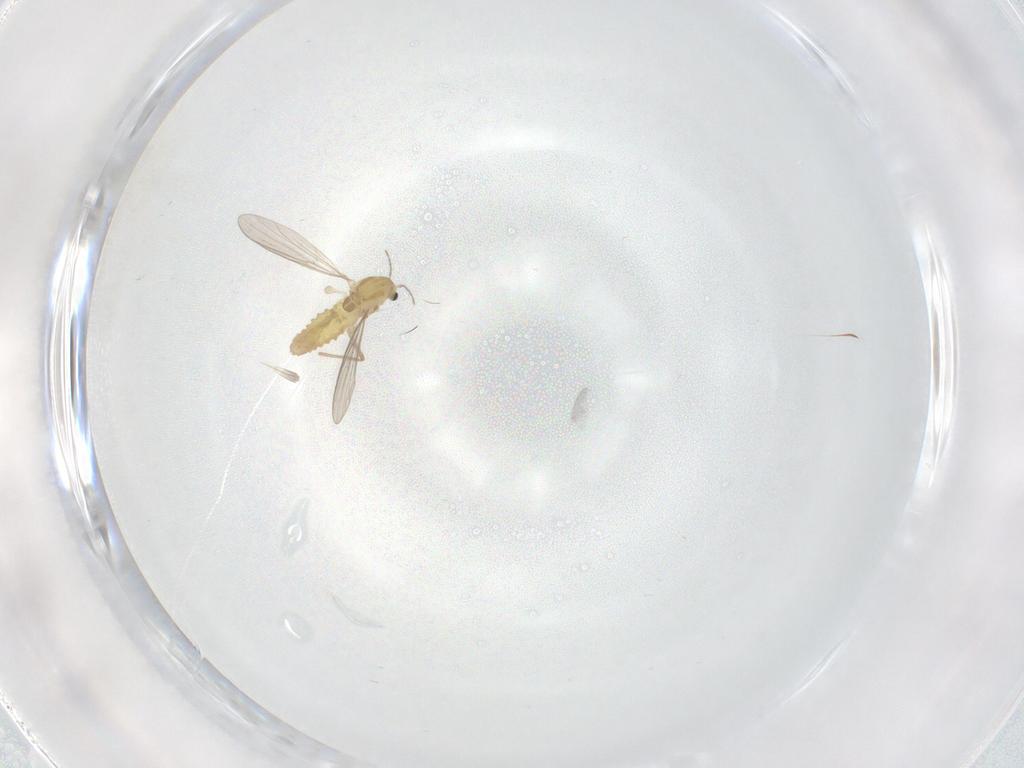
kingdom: Animalia
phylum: Arthropoda
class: Insecta
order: Diptera
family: Chironomidae
